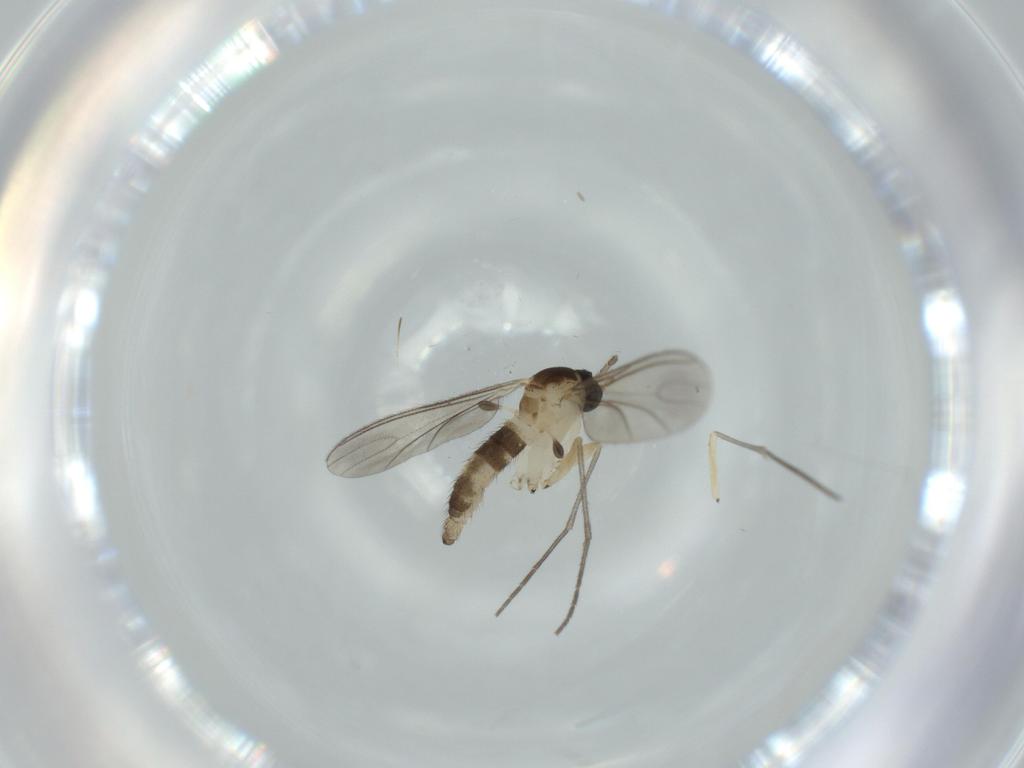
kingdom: Animalia
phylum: Arthropoda
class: Insecta
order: Diptera
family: Sciaridae
